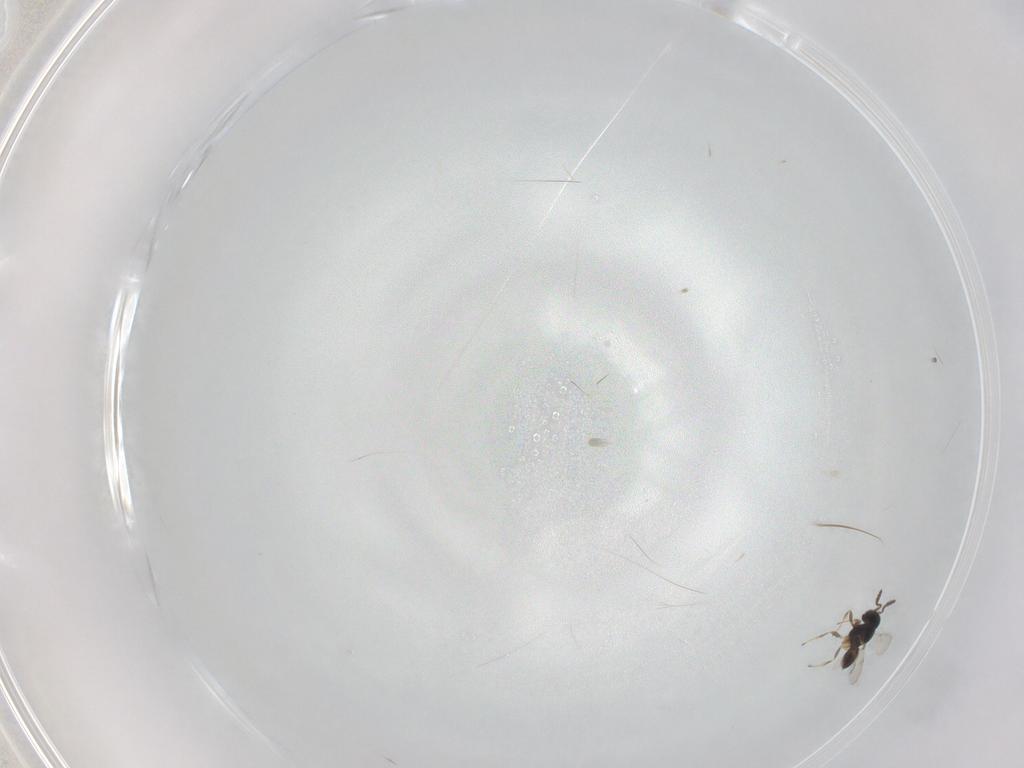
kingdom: Animalia
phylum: Arthropoda
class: Insecta
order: Hymenoptera
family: Scelionidae
